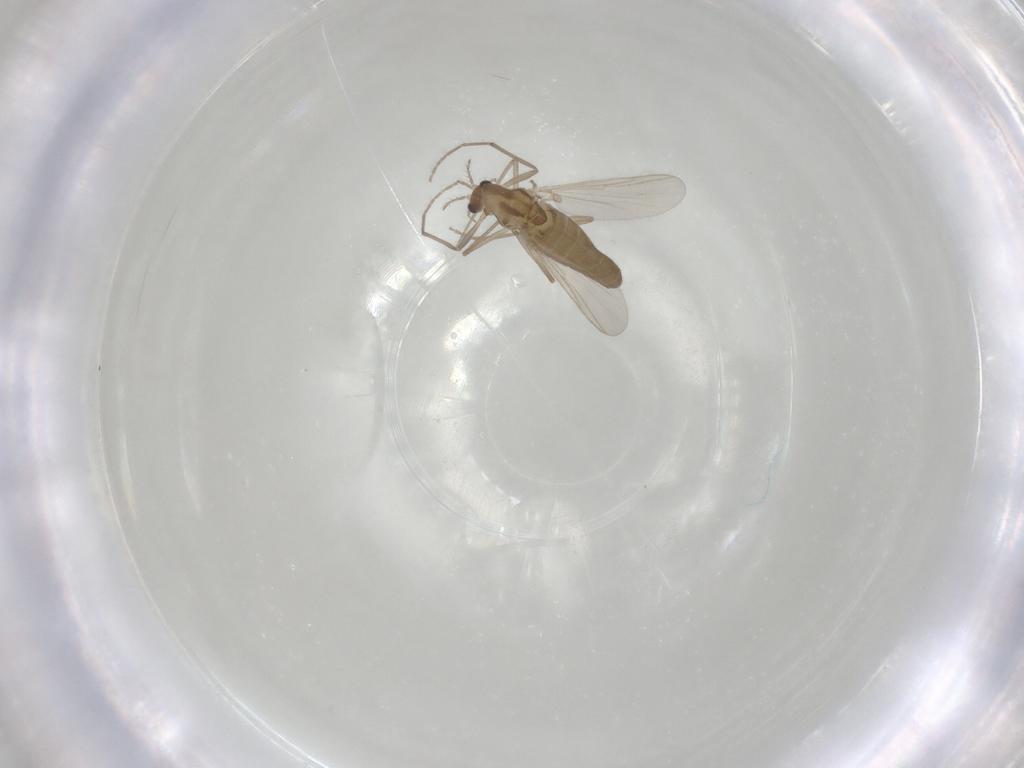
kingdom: Animalia
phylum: Arthropoda
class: Insecta
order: Diptera
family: Chironomidae
